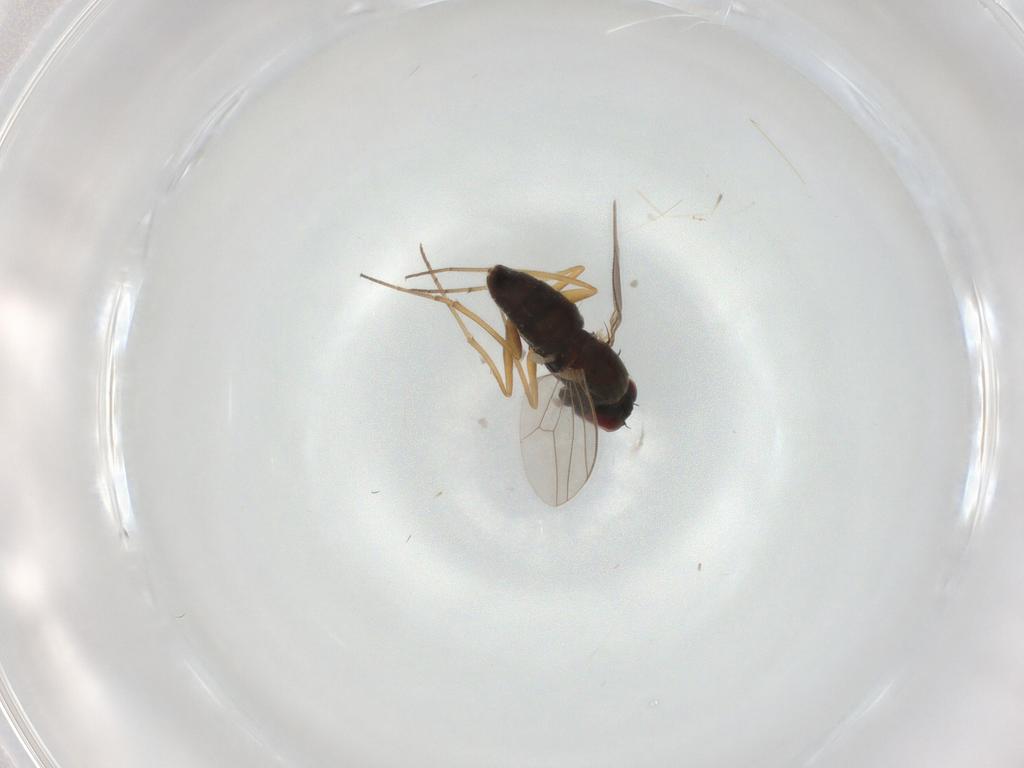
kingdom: Animalia
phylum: Arthropoda
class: Insecta
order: Diptera
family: Cecidomyiidae
